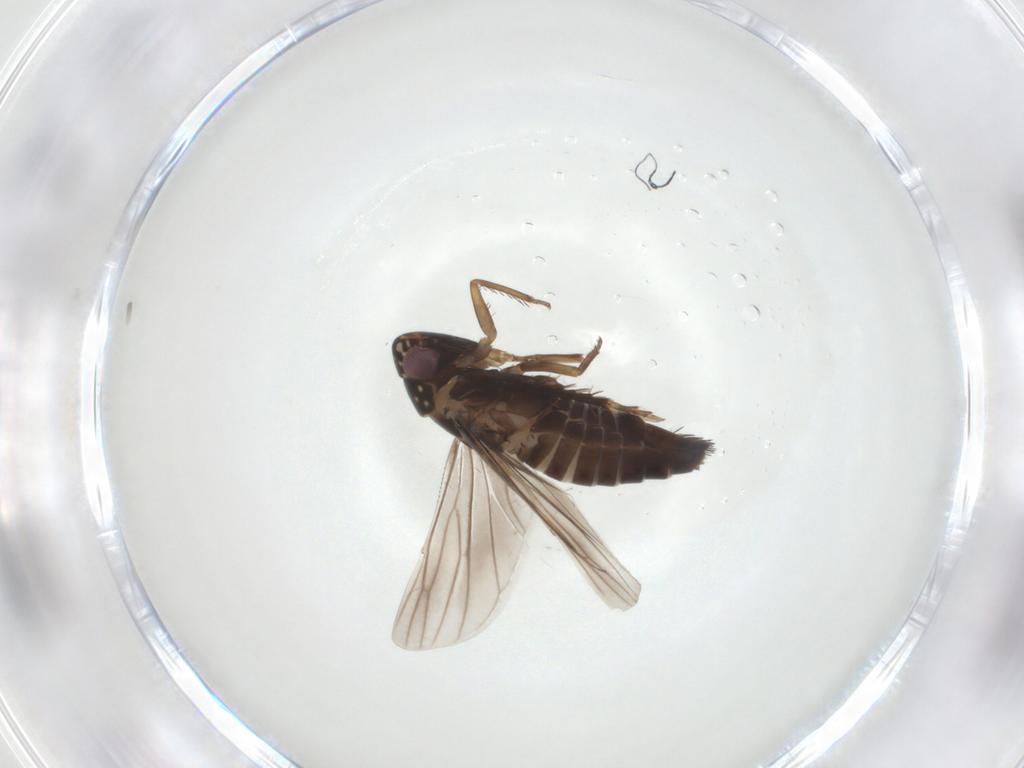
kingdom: Animalia
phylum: Arthropoda
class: Insecta
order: Hemiptera
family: Cicadellidae
